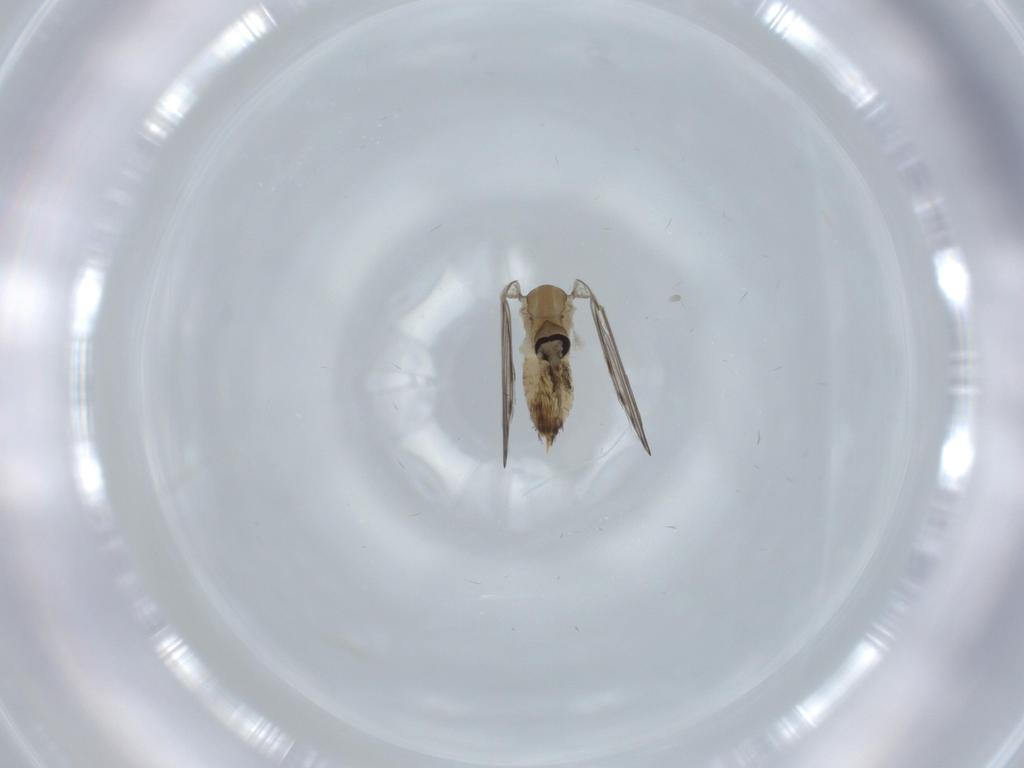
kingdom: Animalia
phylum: Arthropoda
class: Insecta
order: Diptera
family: Psychodidae
